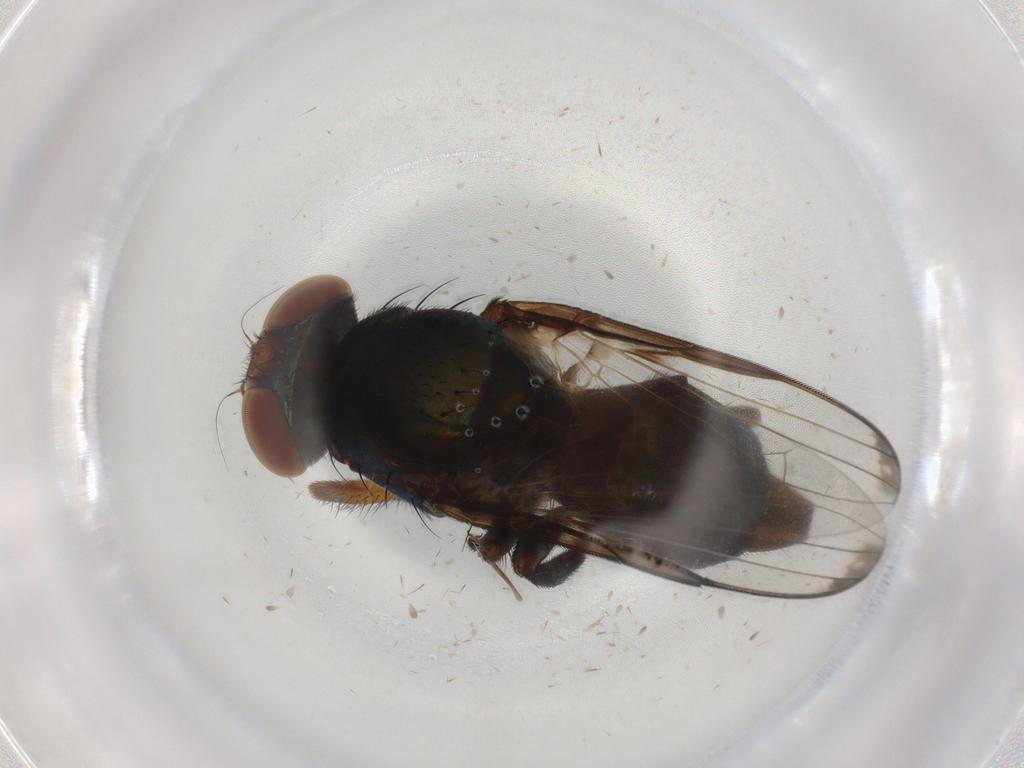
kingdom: Animalia
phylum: Arthropoda
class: Insecta
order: Diptera
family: Ulidiidae
